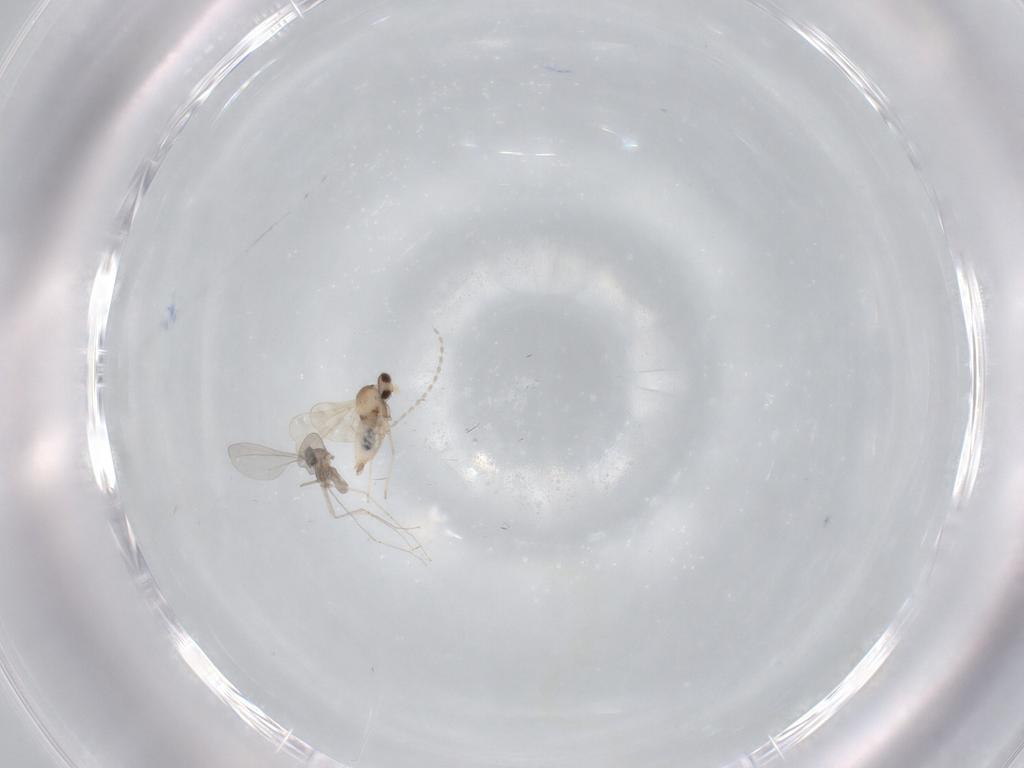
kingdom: Animalia
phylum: Arthropoda
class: Insecta
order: Diptera
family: Cecidomyiidae
